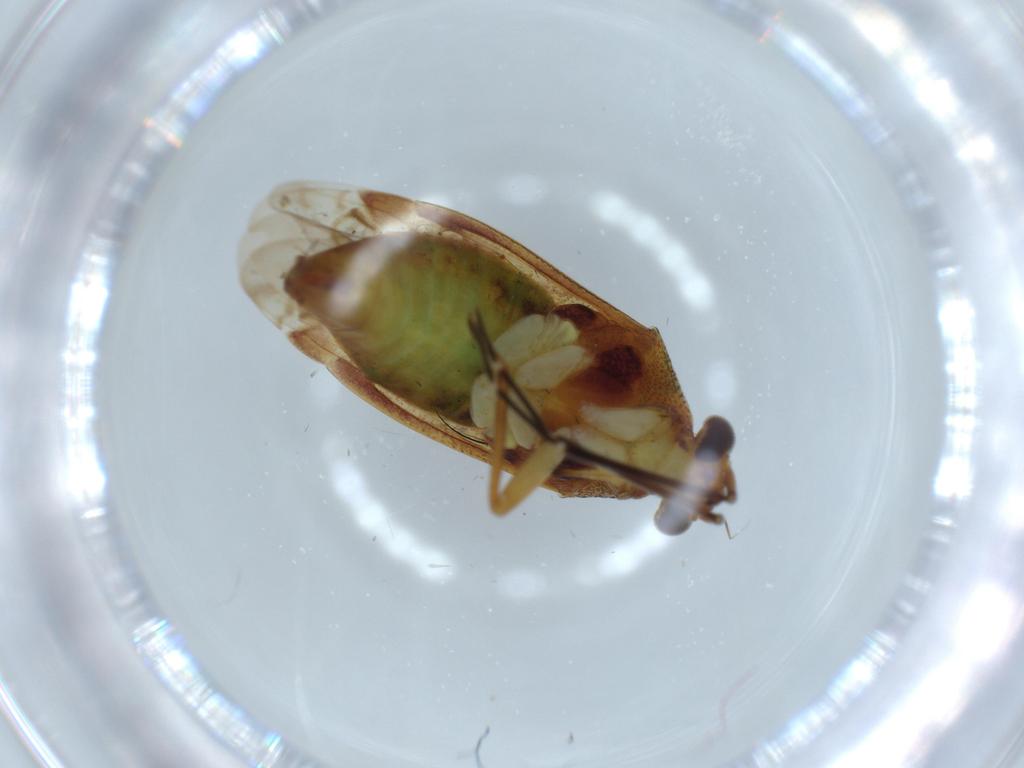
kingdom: Animalia
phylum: Arthropoda
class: Insecta
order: Hemiptera
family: Miridae
